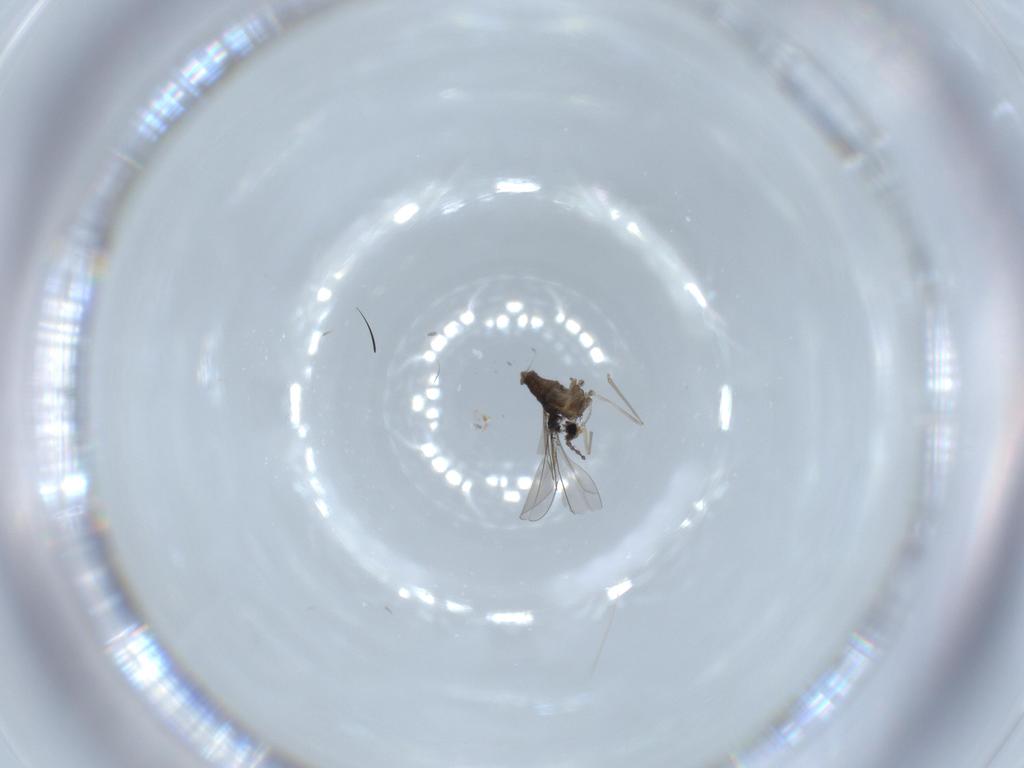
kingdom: Animalia
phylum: Arthropoda
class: Insecta
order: Diptera
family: Cecidomyiidae
